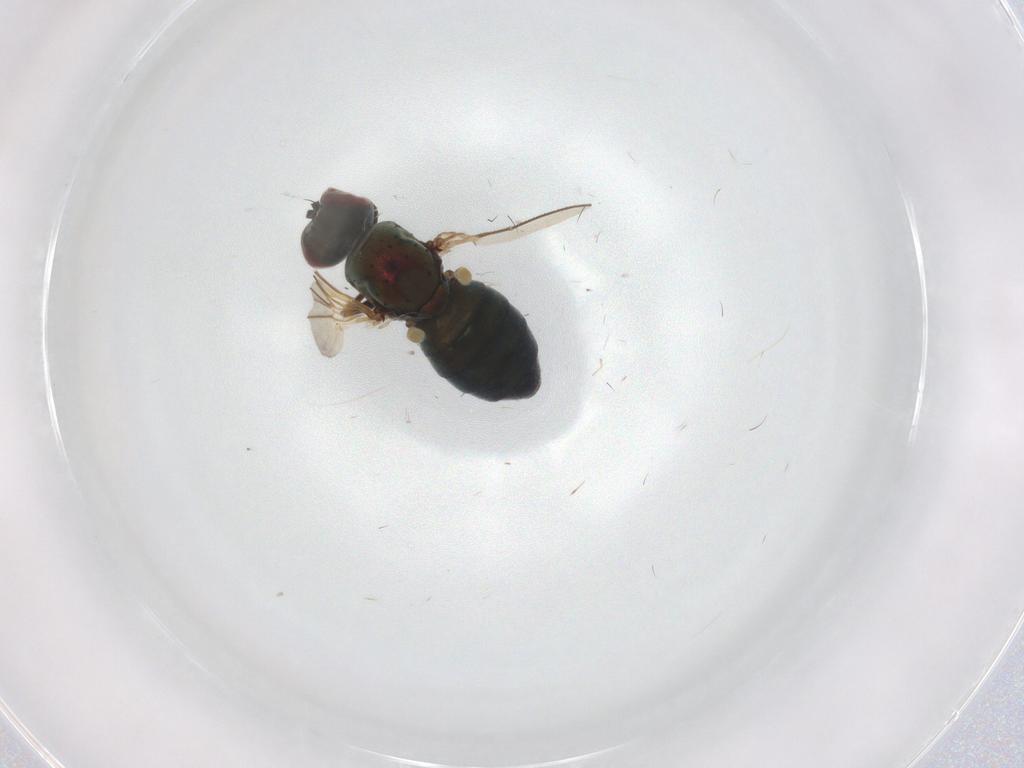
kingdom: Animalia
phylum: Arthropoda
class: Insecta
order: Diptera
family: Dolichopodidae
